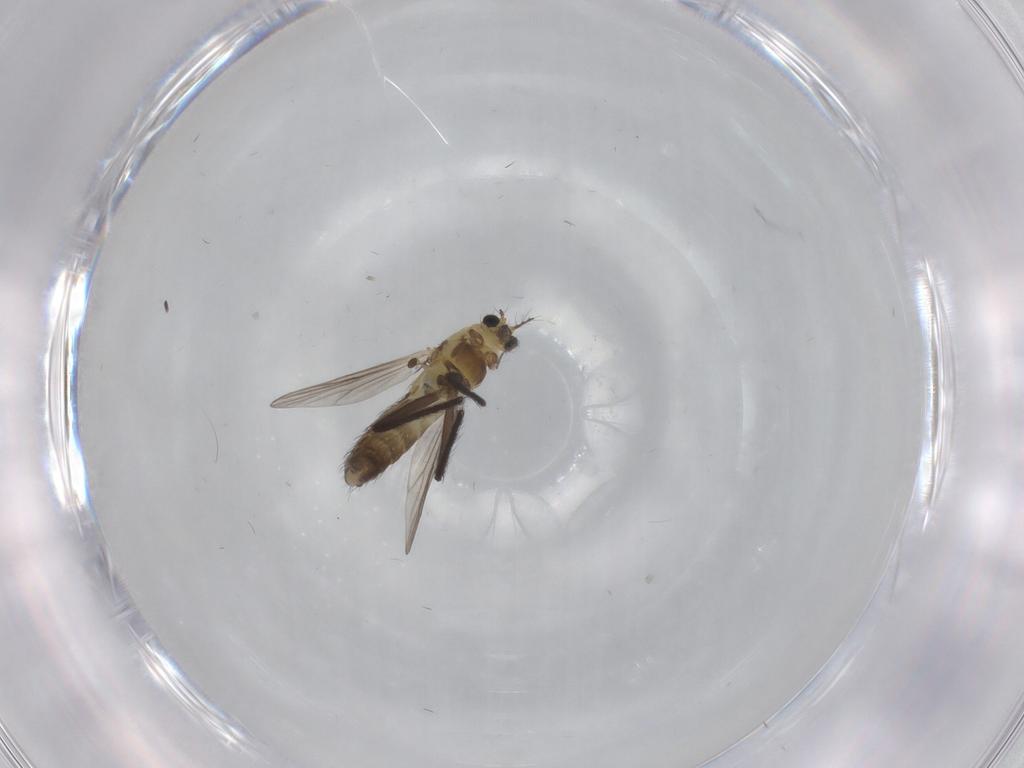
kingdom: Animalia
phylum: Arthropoda
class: Insecta
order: Diptera
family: Chironomidae
